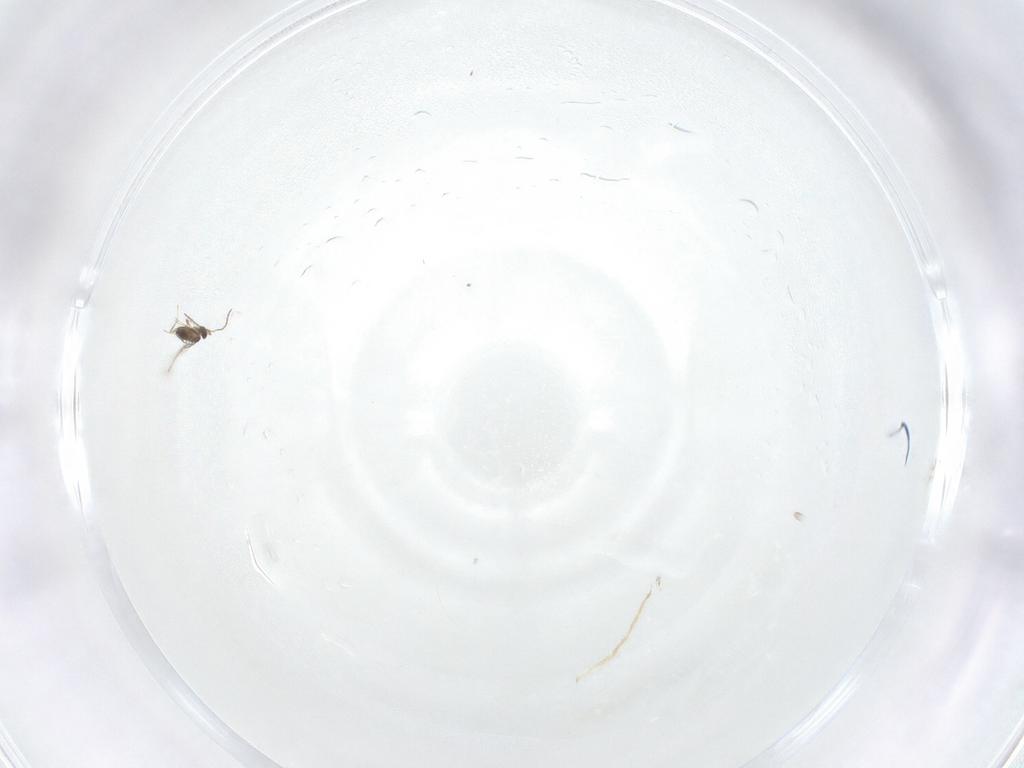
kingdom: Animalia
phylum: Arthropoda
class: Insecta
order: Hymenoptera
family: Mymaridae
